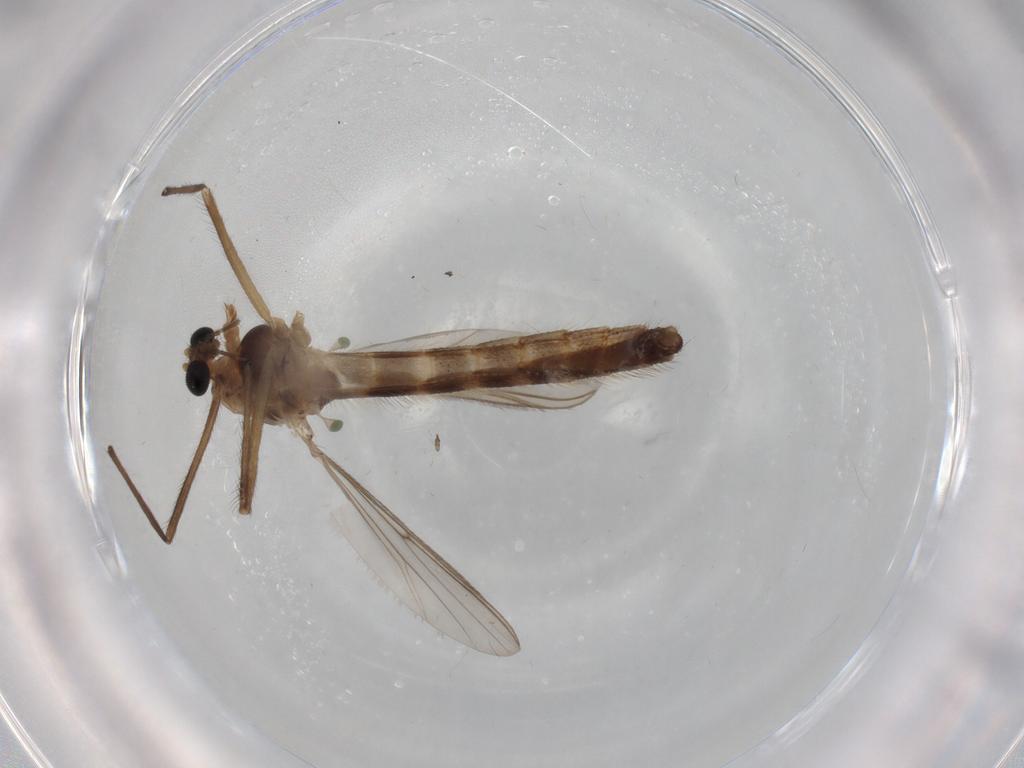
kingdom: Animalia
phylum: Arthropoda
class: Insecta
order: Diptera
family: Chironomidae
